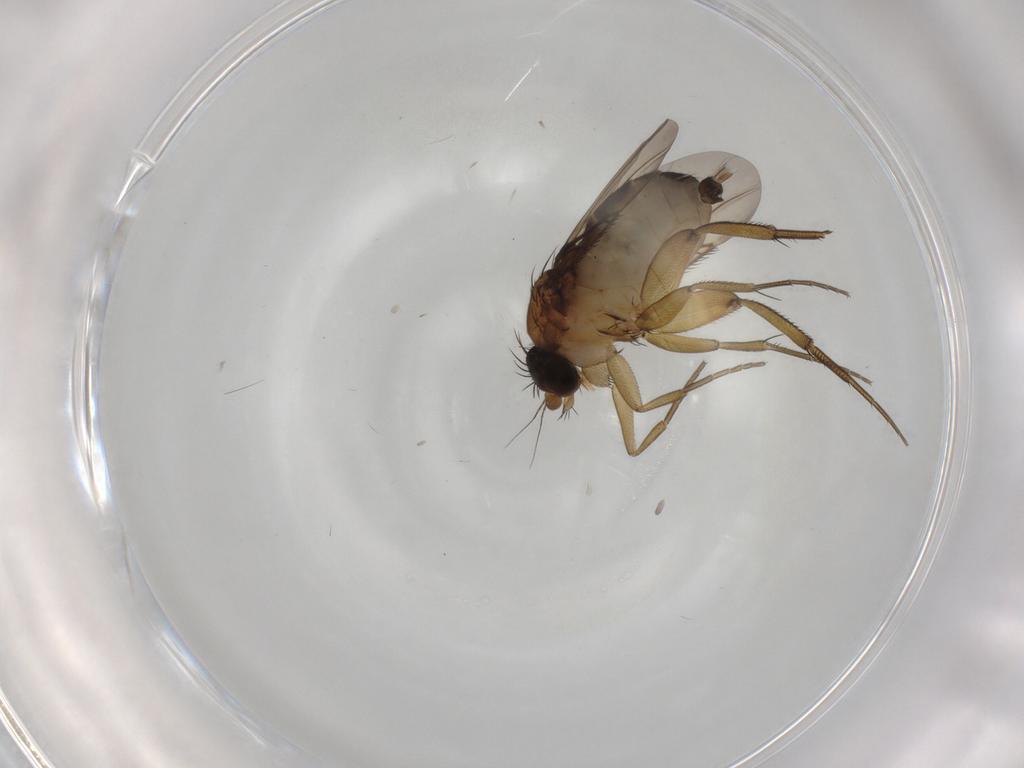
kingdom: Animalia
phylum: Arthropoda
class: Insecta
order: Diptera
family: Phoridae
